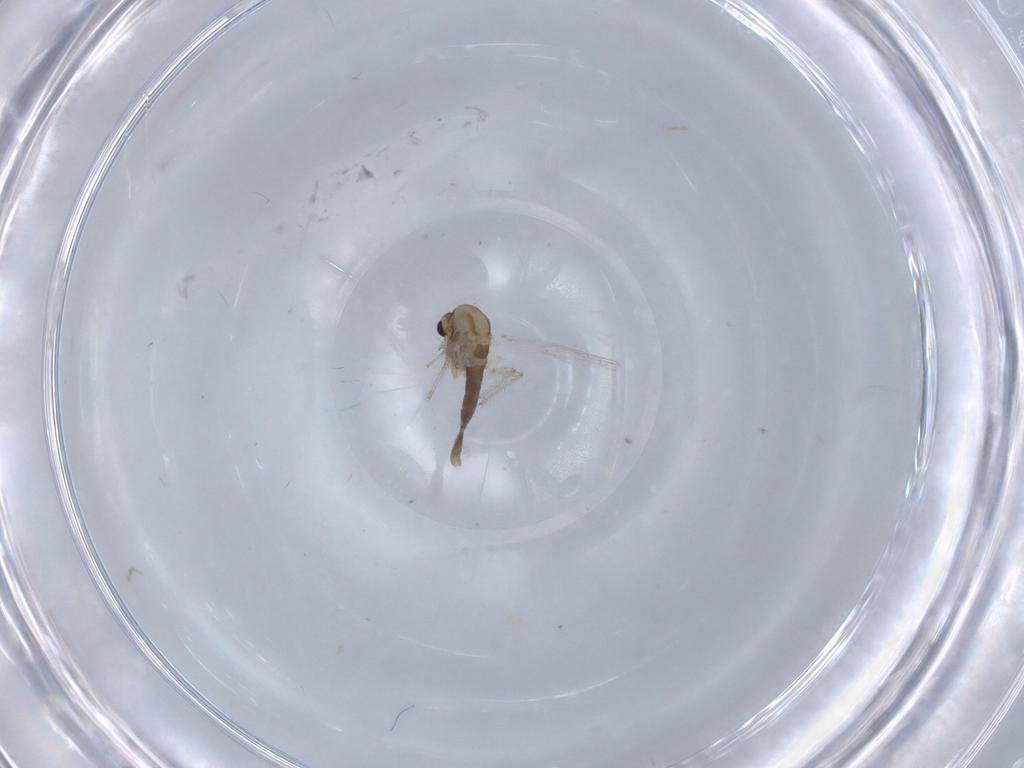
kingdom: Animalia
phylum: Arthropoda
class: Insecta
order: Diptera
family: Chironomidae
